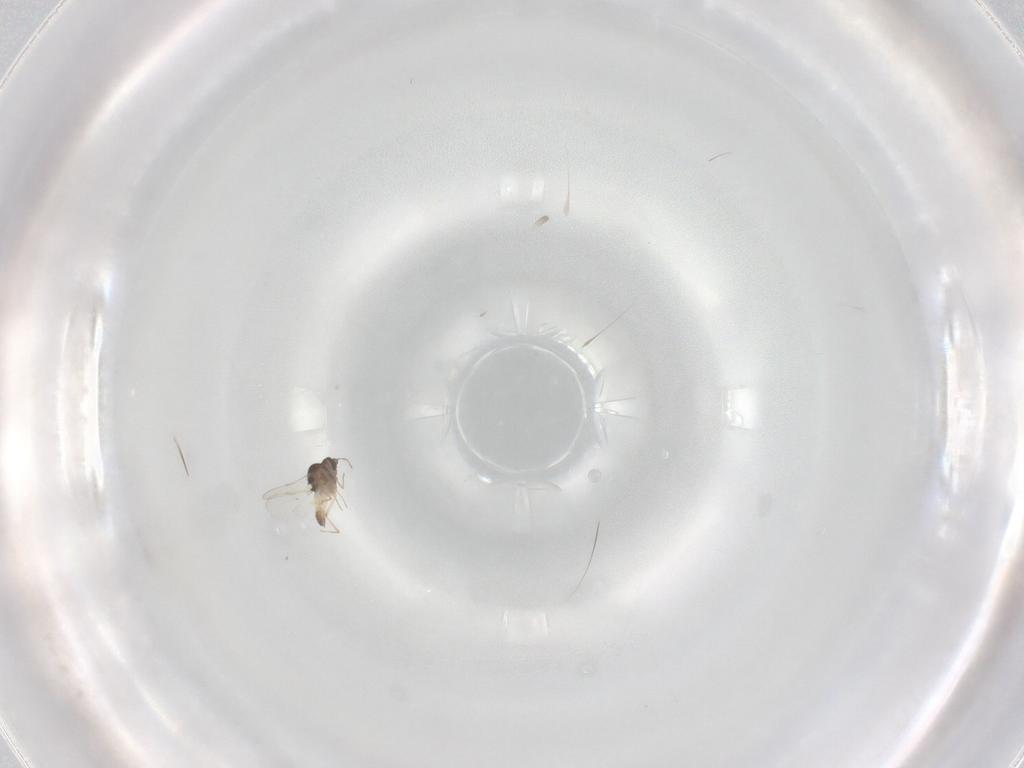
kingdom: Animalia
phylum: Arthropoda
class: Insecta
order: Diptera
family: Ceratopogonidae
